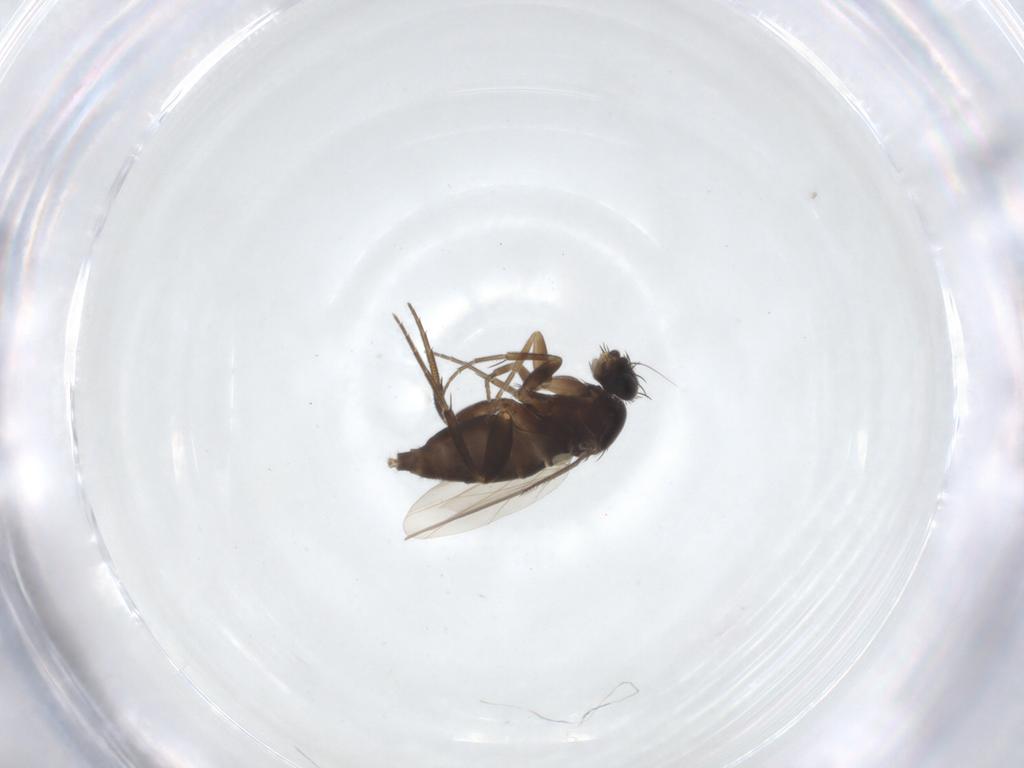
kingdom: Animalia
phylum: Arthropoda
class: Insecta
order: Diptera
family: Phoridae
